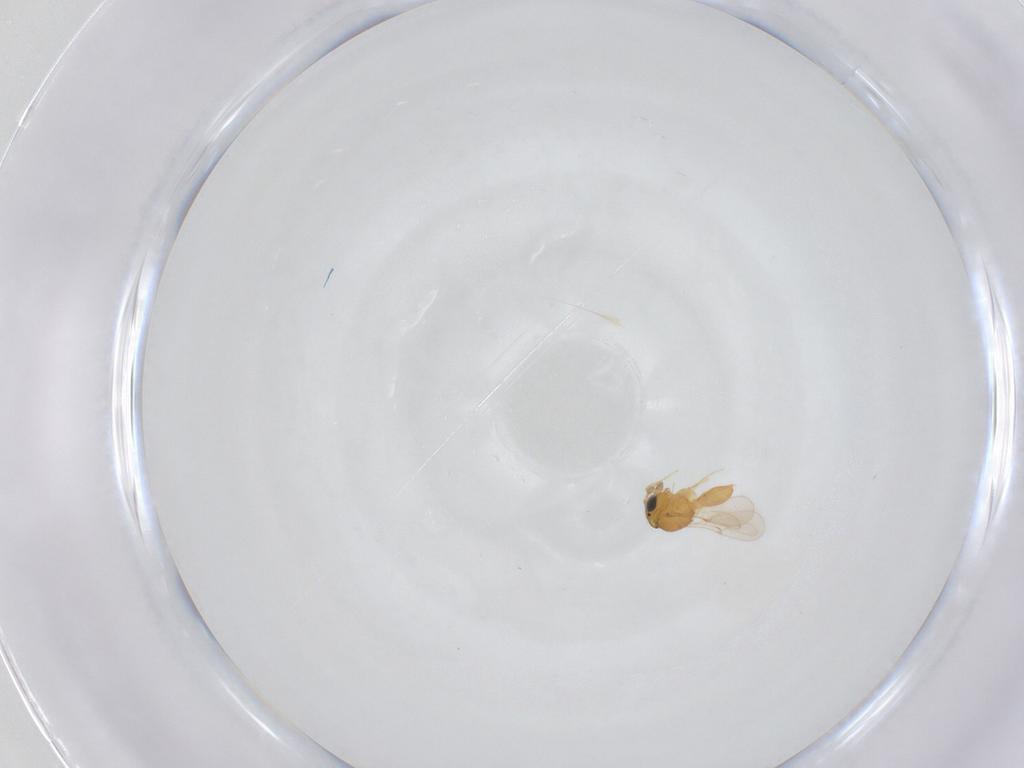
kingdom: Animalia
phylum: Arthropoda
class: Insecta
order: Hymenoptera
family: Scelionidae
